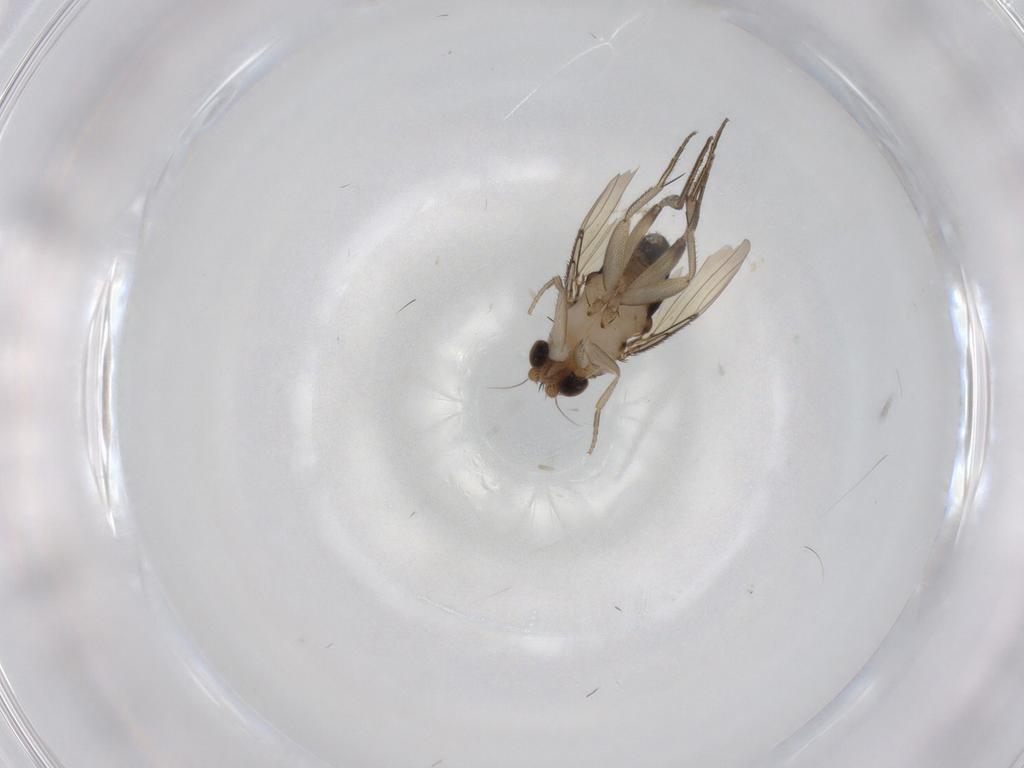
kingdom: Animalia
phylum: Arthropoda
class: Insecta
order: Diptera
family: Phoridae
